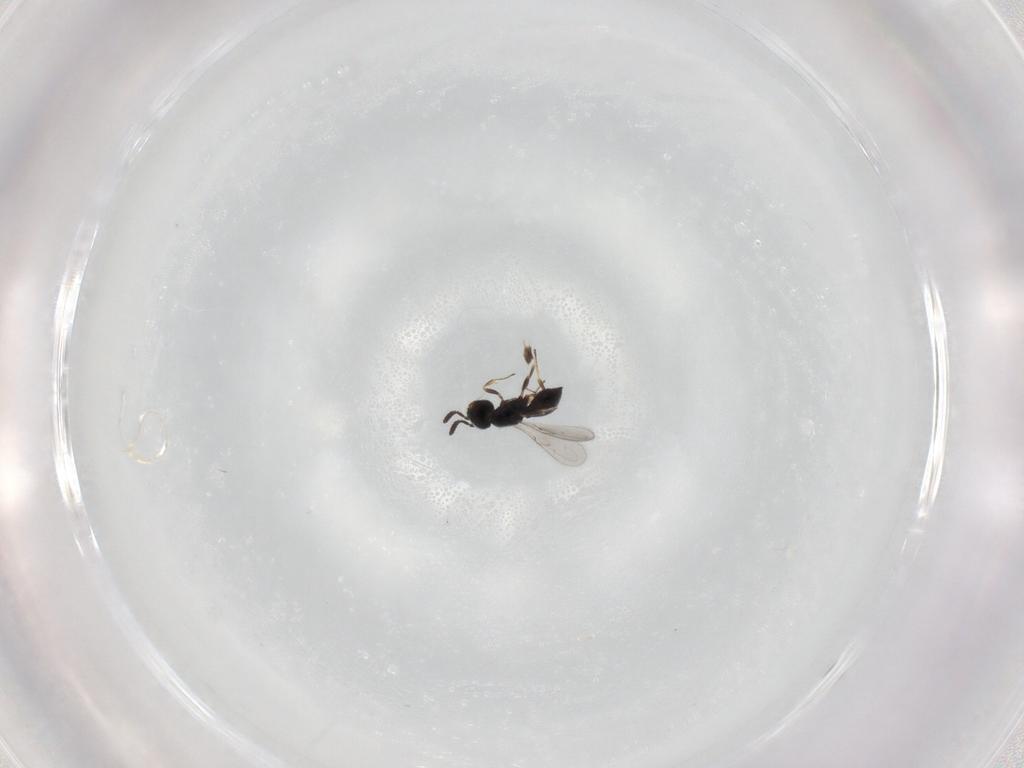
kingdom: Animalia
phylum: Arthropoda
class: Insecta
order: Hymenoptera
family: Scelionidae
